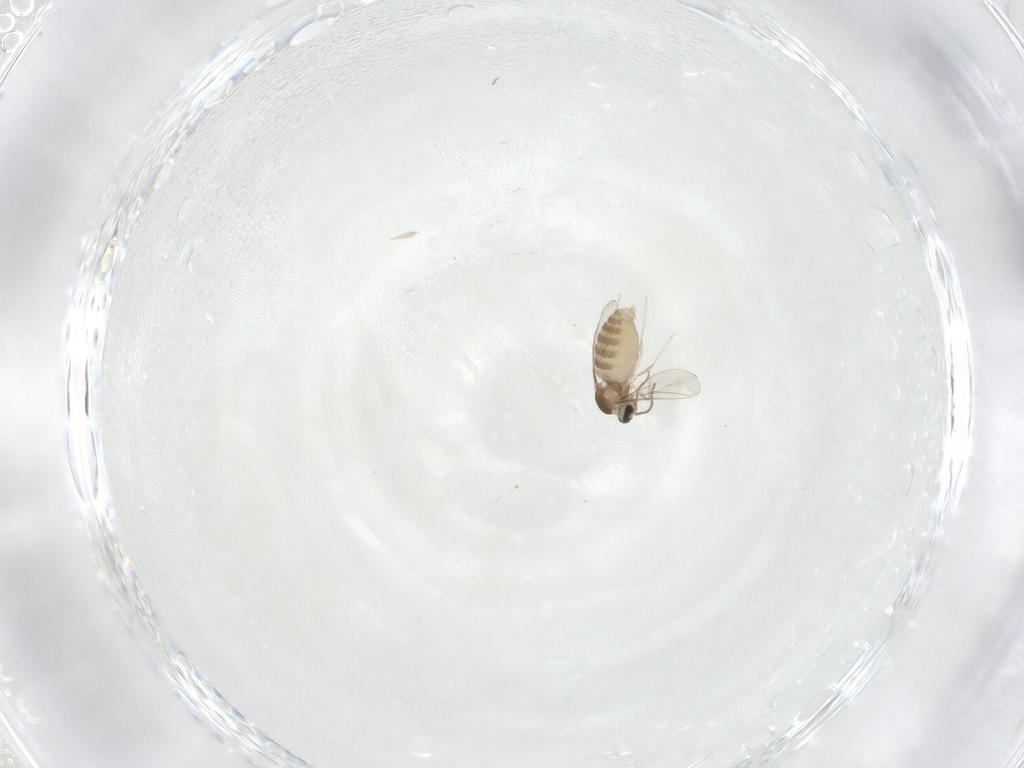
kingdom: Animalia
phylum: Arthropoda
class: Insecta
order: Diptera
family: Cecidomyiidae
